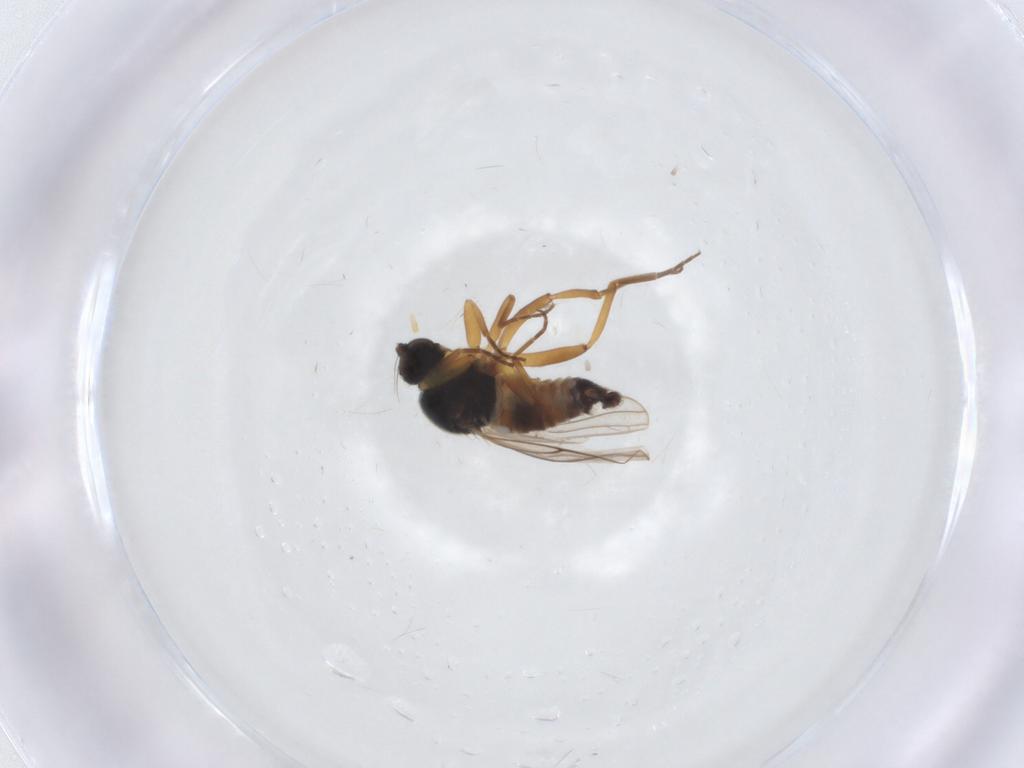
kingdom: Animalia
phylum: Arthropoda
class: Insecta
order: Diptera
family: Hybotidae
